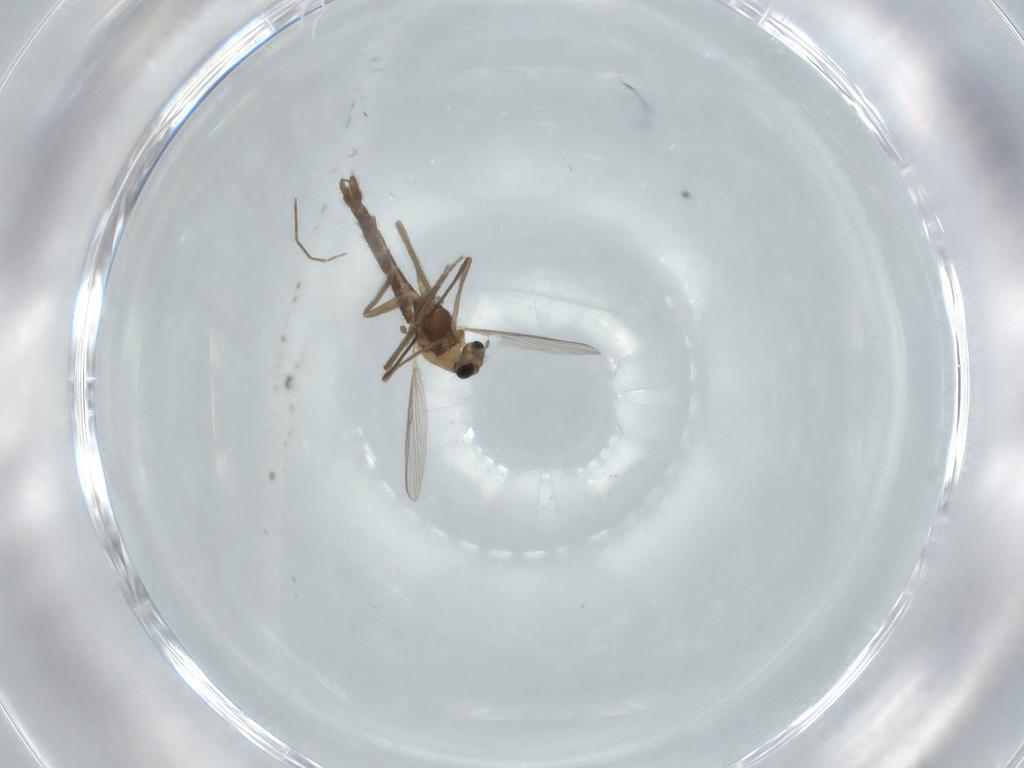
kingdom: Animalia
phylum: Arthropoda
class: Insecta
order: Diptera
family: Chironomidae
